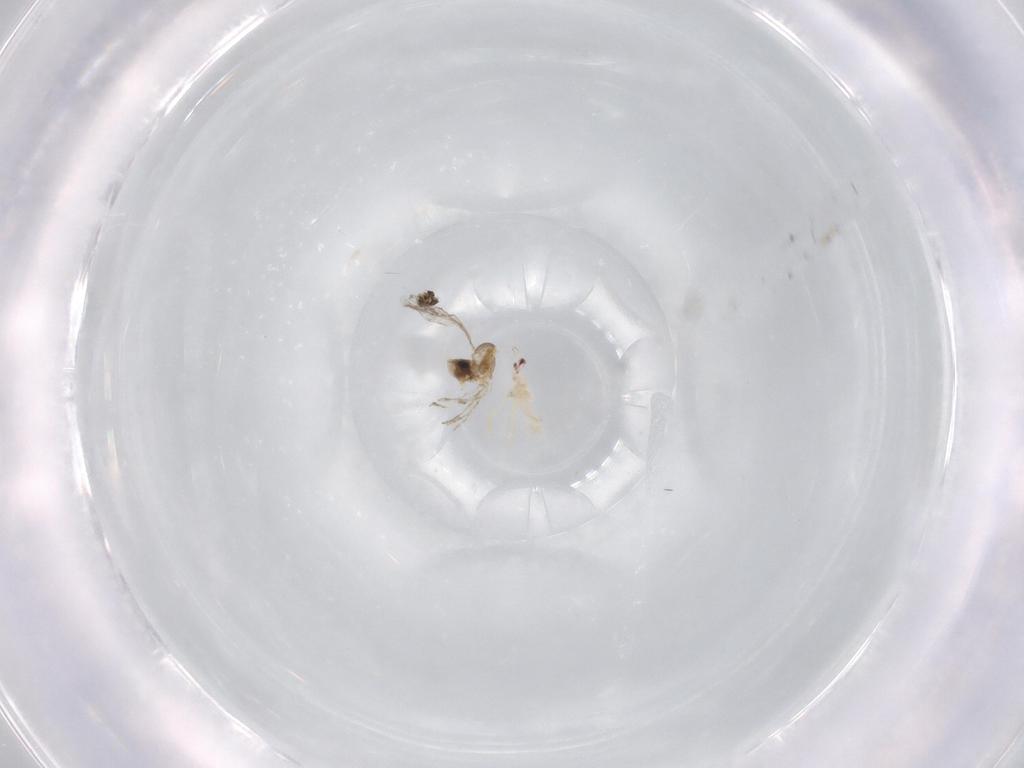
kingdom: Animalia
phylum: Arthropoda
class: Insecta
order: Diptera
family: Chironomidae
